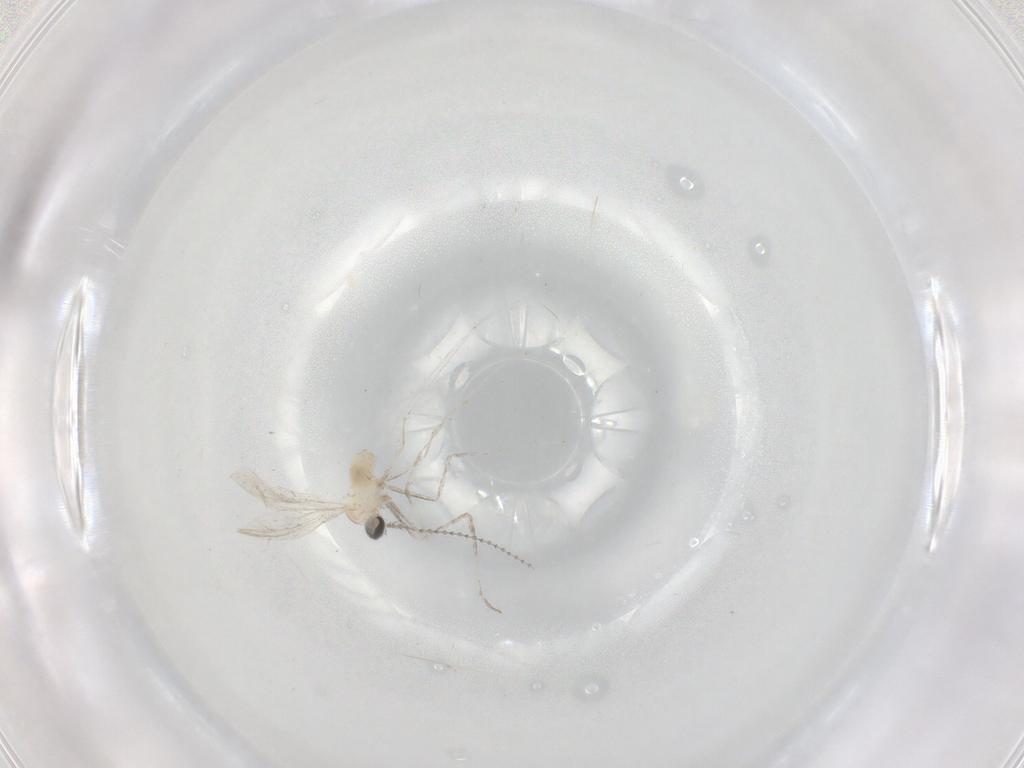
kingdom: Animalia
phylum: Arthropoda
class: Insecta
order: Diptera
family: Cecidomyiidae
